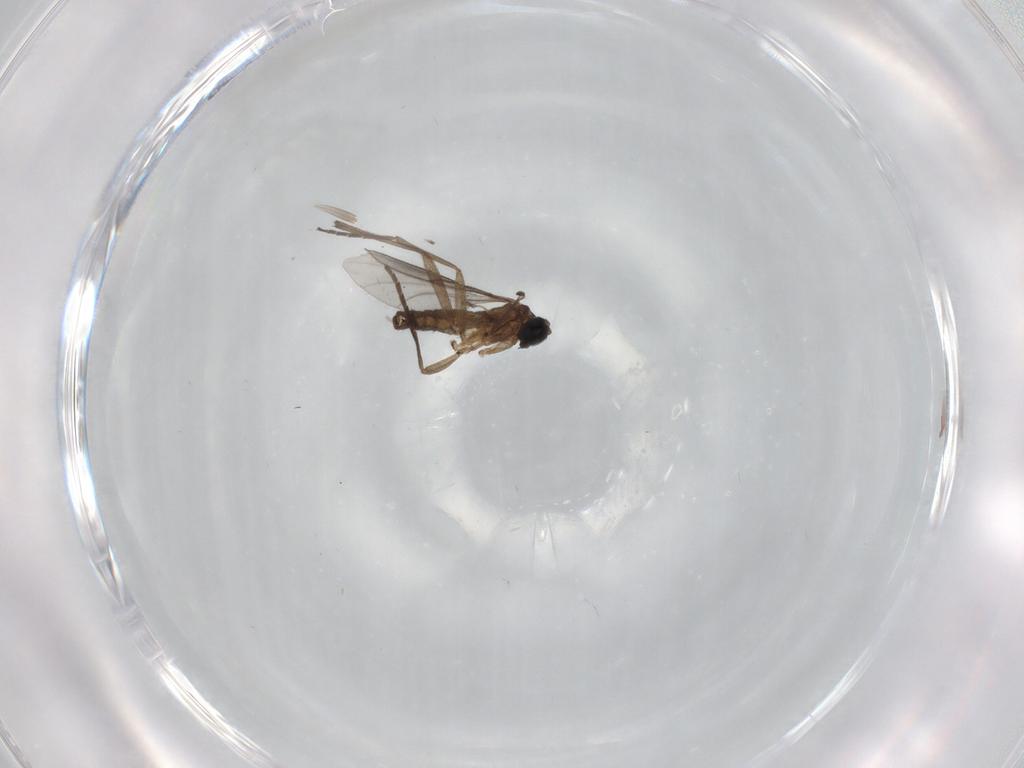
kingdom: Animalia
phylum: Arthropoda
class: Insecta
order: Diptera
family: Sciaridae
